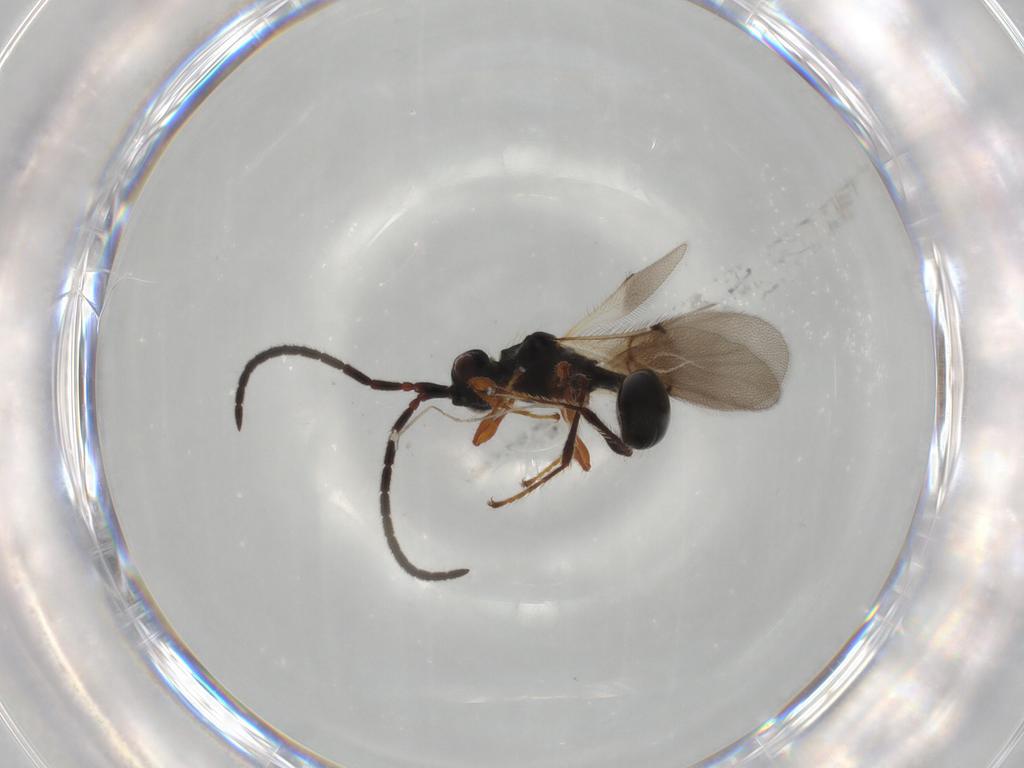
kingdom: Animalia
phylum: Arthropoda
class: Insecta
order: Hymenoptera
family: Diapriidae
